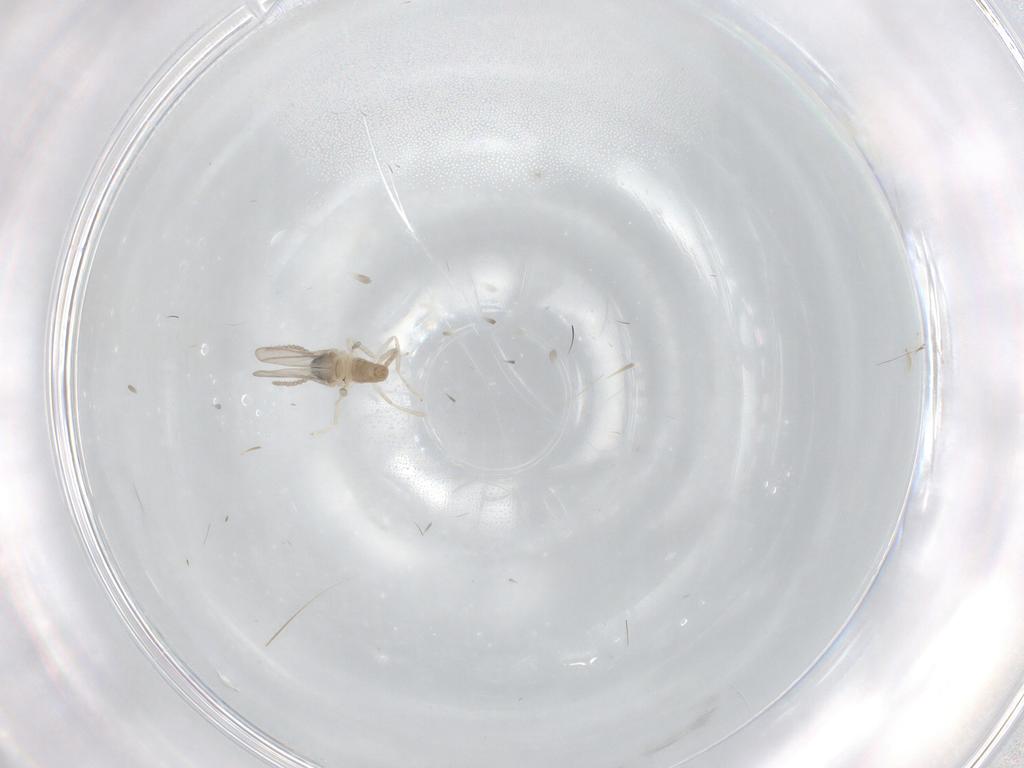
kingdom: Animalia
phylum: Arthropoda
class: Insecta
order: Diptera
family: Cecidomyiidae
